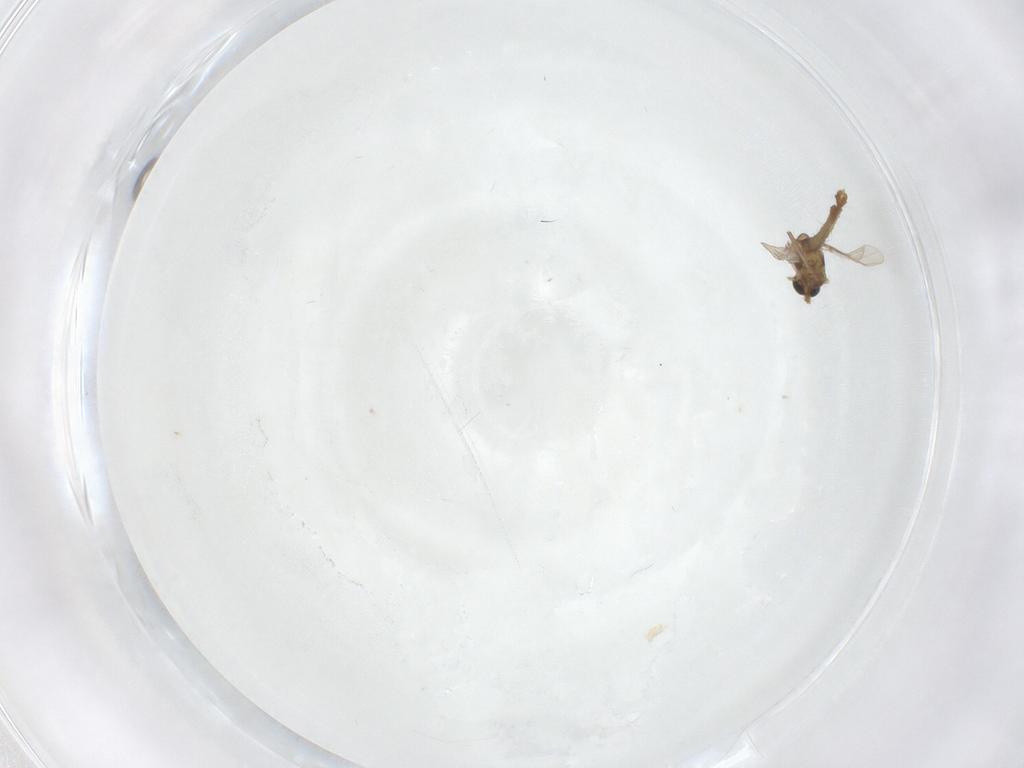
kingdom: Animalia
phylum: Arthropoda
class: Insecta
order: Diptera
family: Chironomidae
